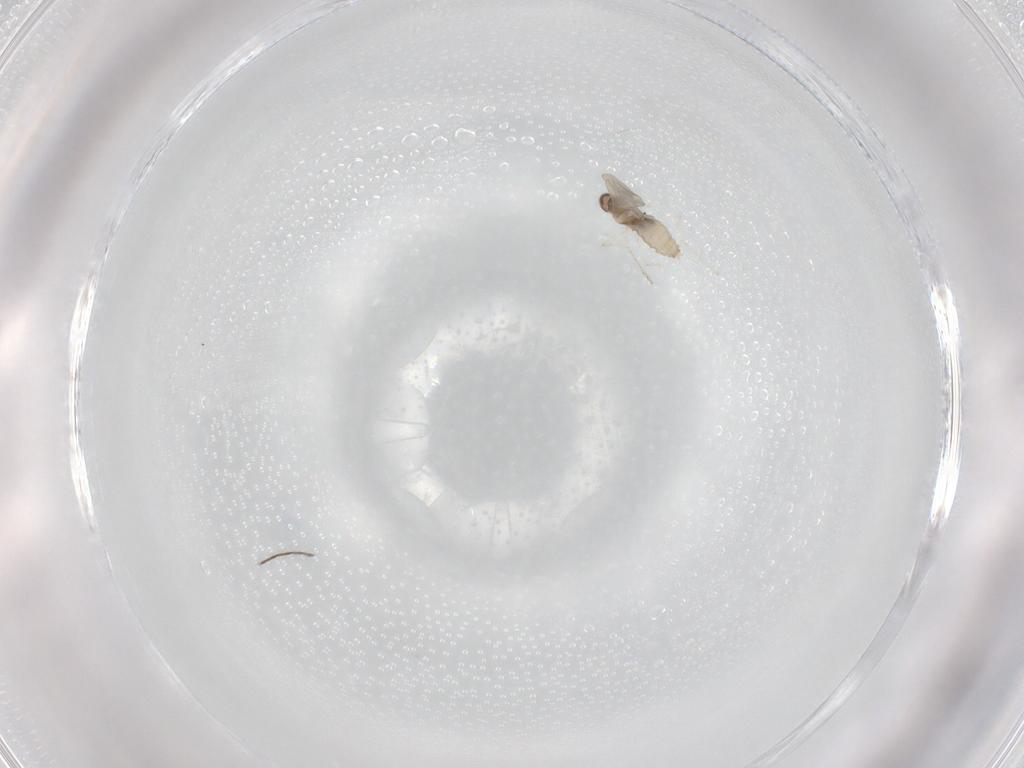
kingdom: Animalia
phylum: Arthropoda
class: Insecta
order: Diptera
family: Cecidomyiidae
